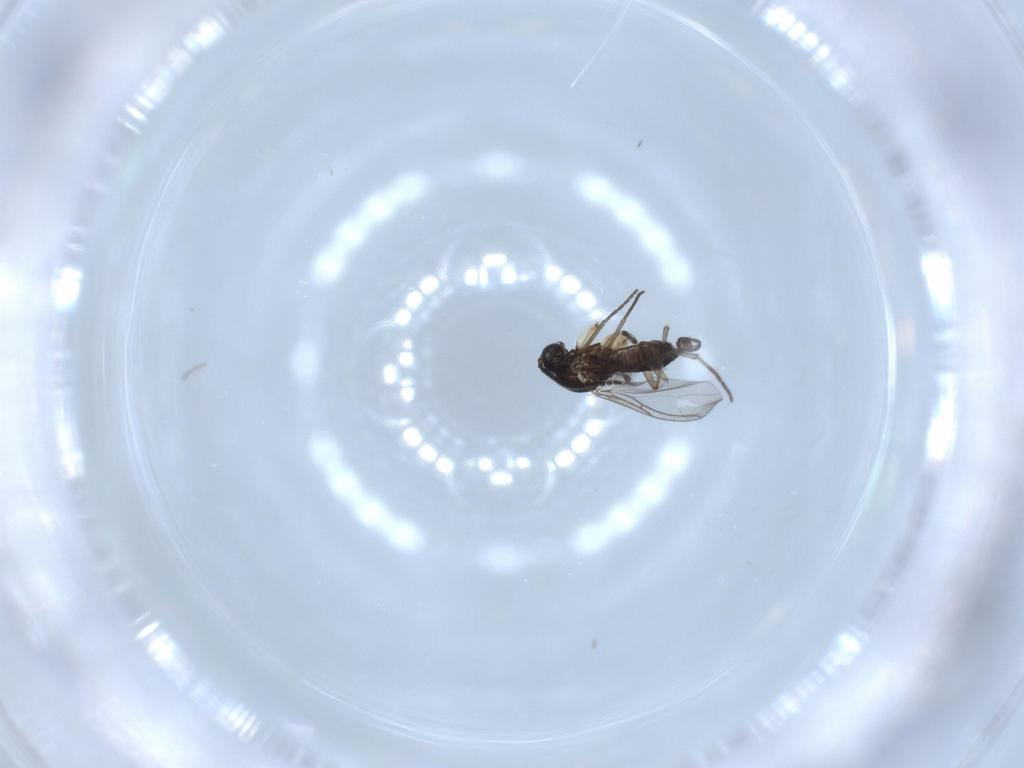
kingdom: Animalia
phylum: Arthropoda
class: Insecta
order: Diptera
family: Sciaridae
